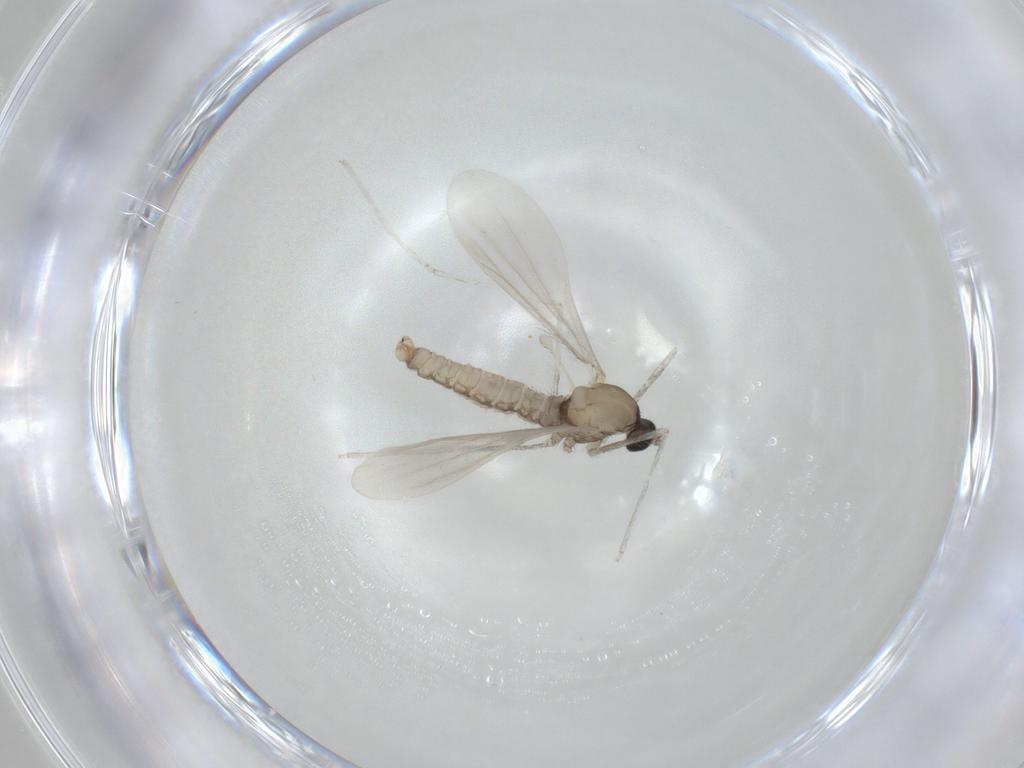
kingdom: Animalia
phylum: Arthropoda
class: Insecta
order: Diptera
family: Cecidomyiidae
